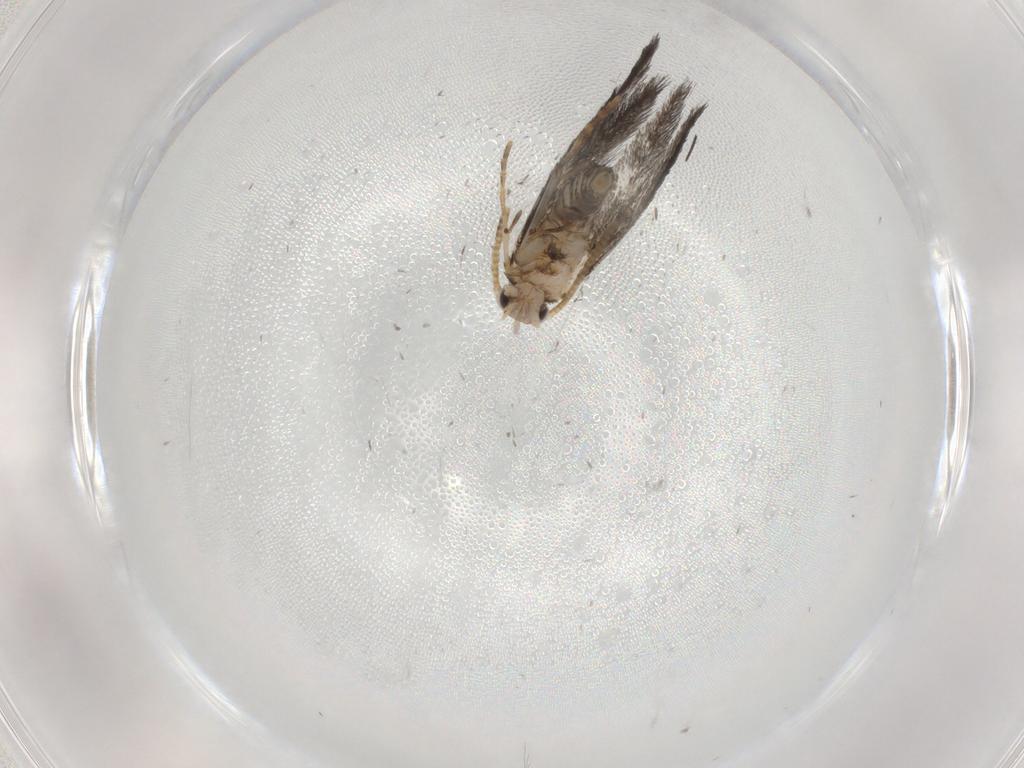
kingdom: Animalia
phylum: Arthropoda
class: Insecta
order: Lepidoptera
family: Tineidae
